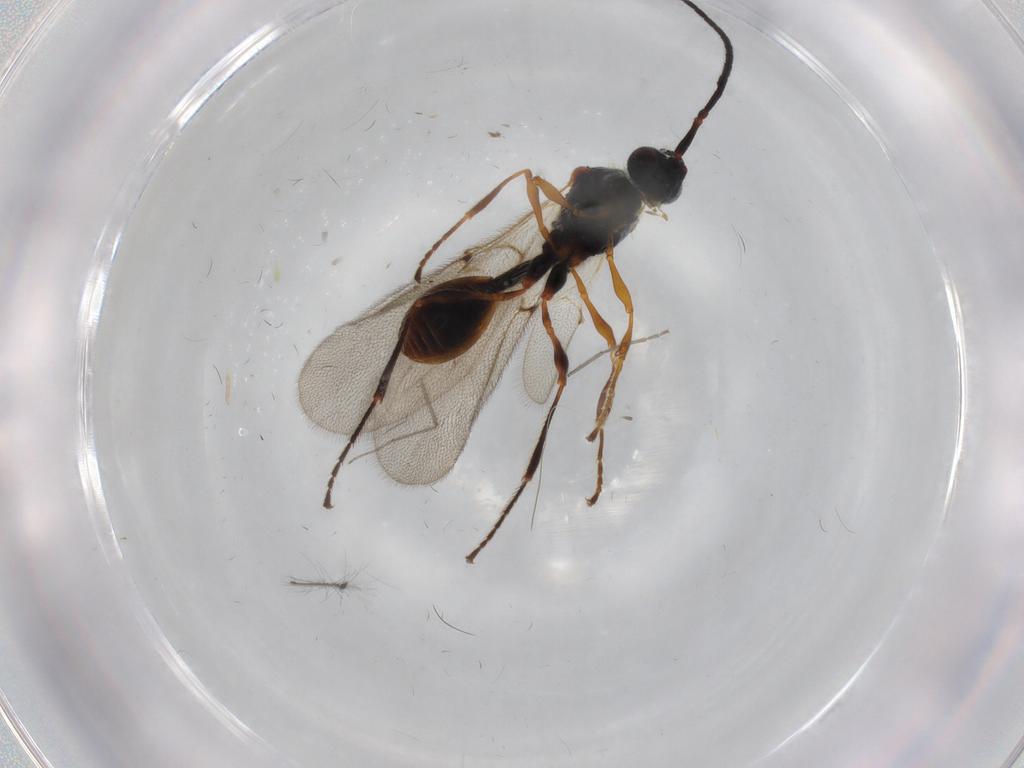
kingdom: Animalia
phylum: Arthropoda
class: Insecta
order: Hymenoptera
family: Diapriidae
